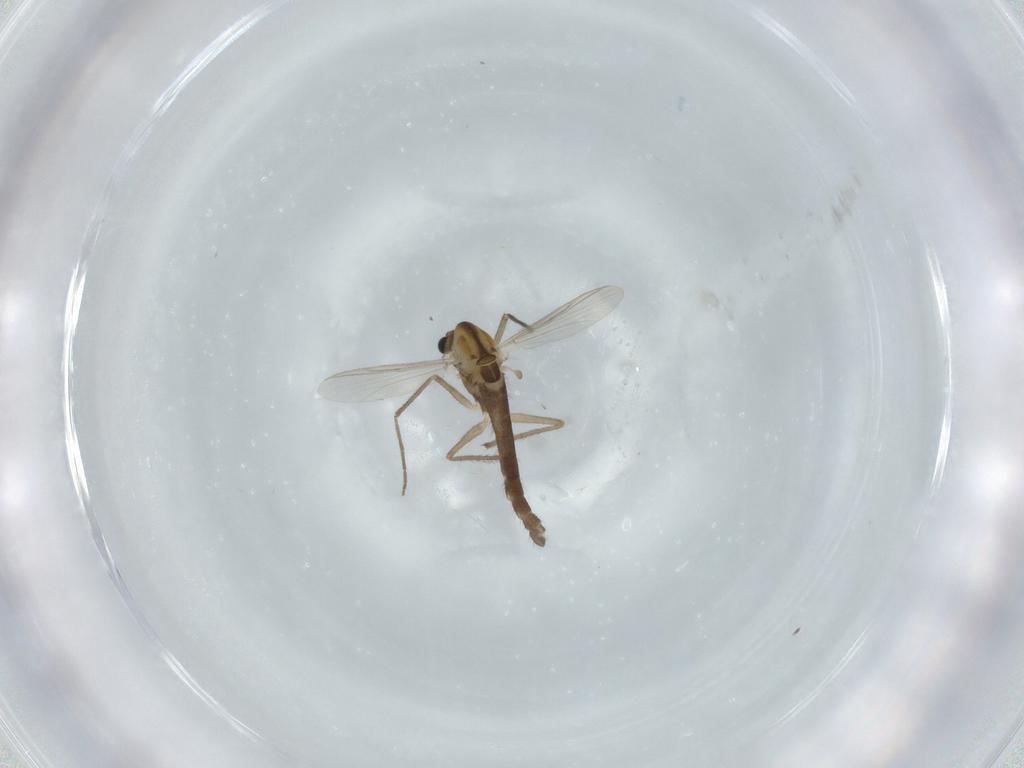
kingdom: Animalia
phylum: Arthropoda
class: Insecta
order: Diptera
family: Chironomidae
